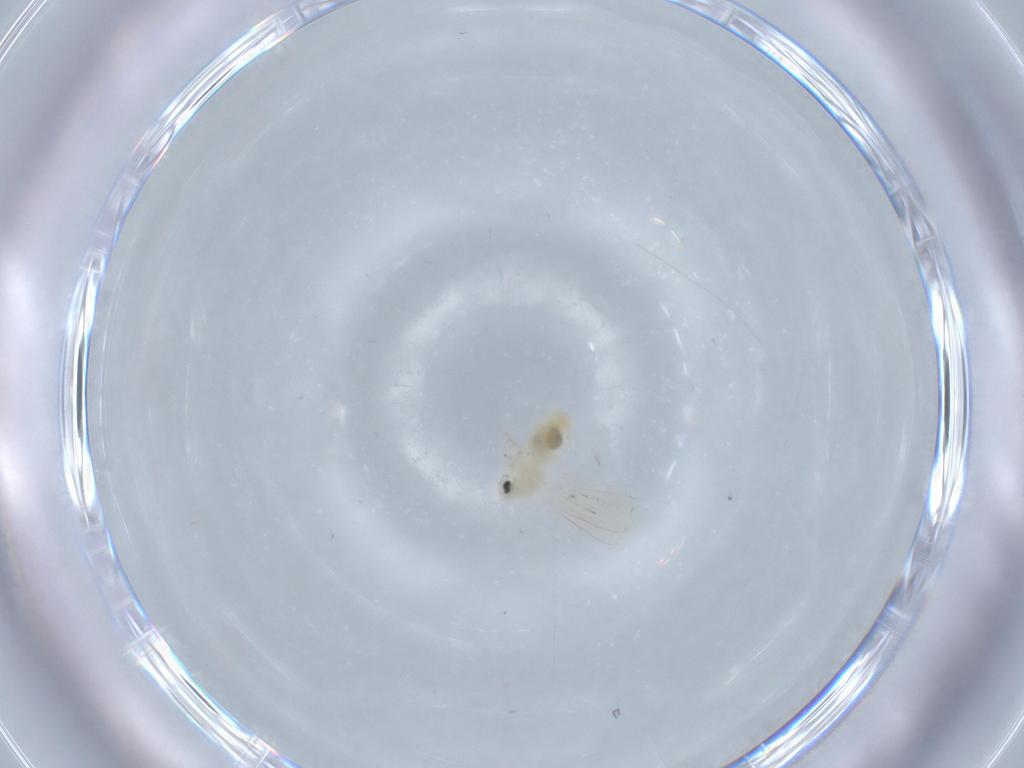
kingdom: Animalia
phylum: Arthropoda
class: Insecta
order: Hemiptera
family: Aleyrodidae
